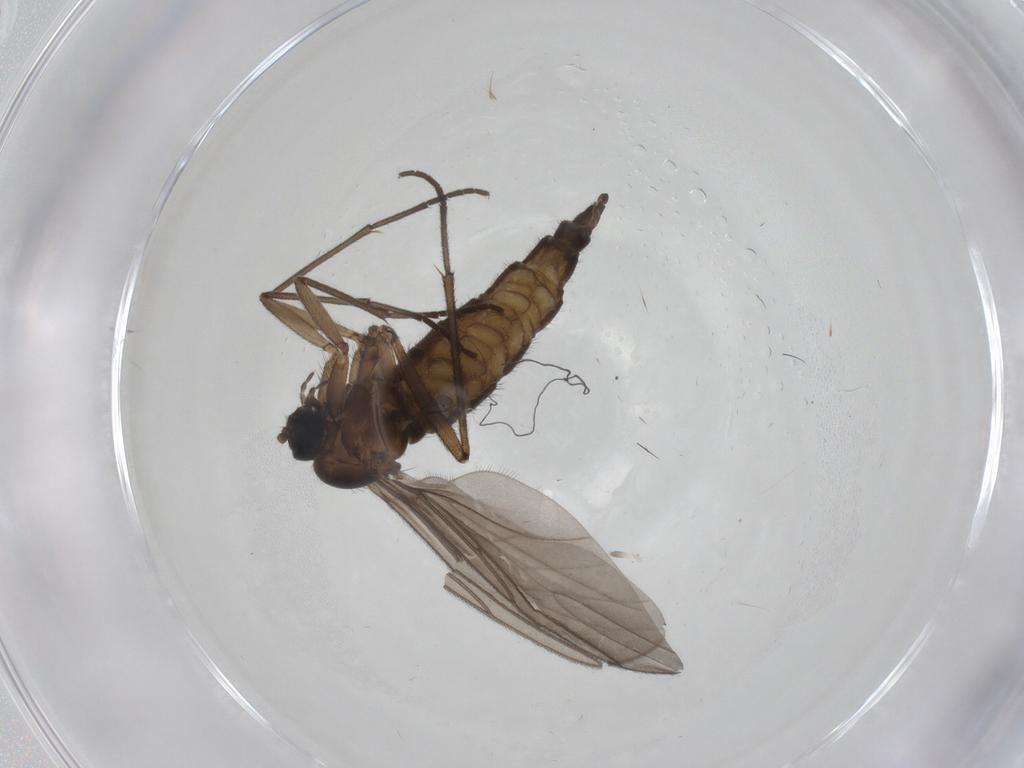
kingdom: Animalia
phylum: Arthropoda
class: Insecta
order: Diptera
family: Sciaridae
